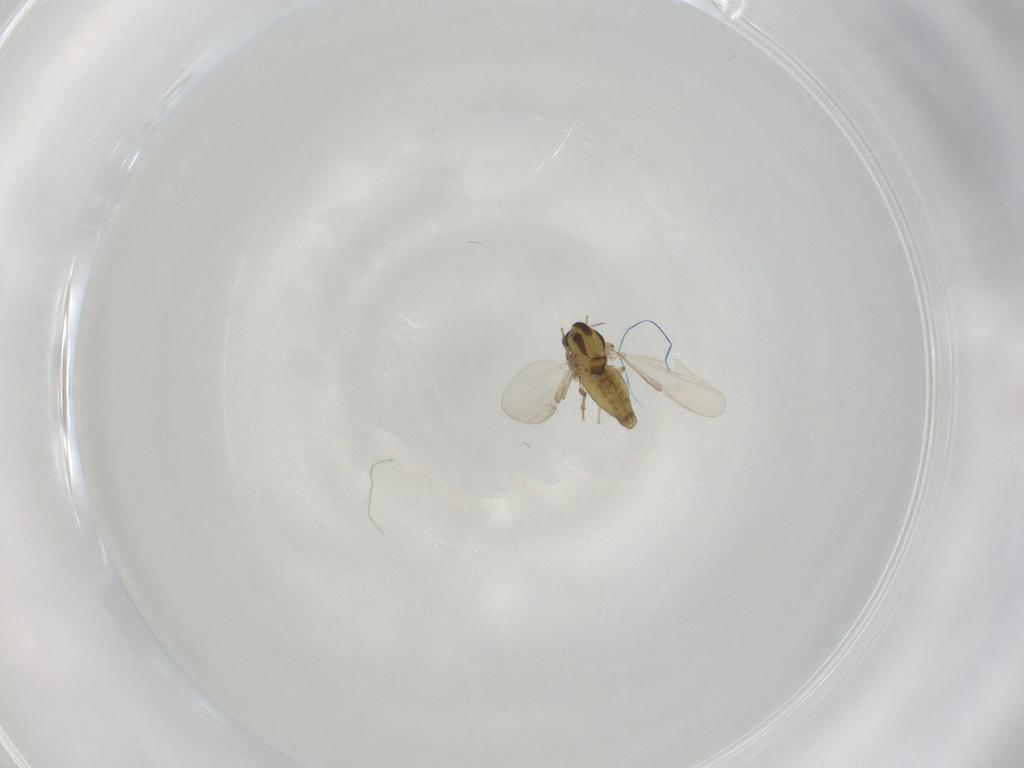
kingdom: Animalia
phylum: Arthropoda
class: Insecta
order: Diptera
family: Chironomidae
